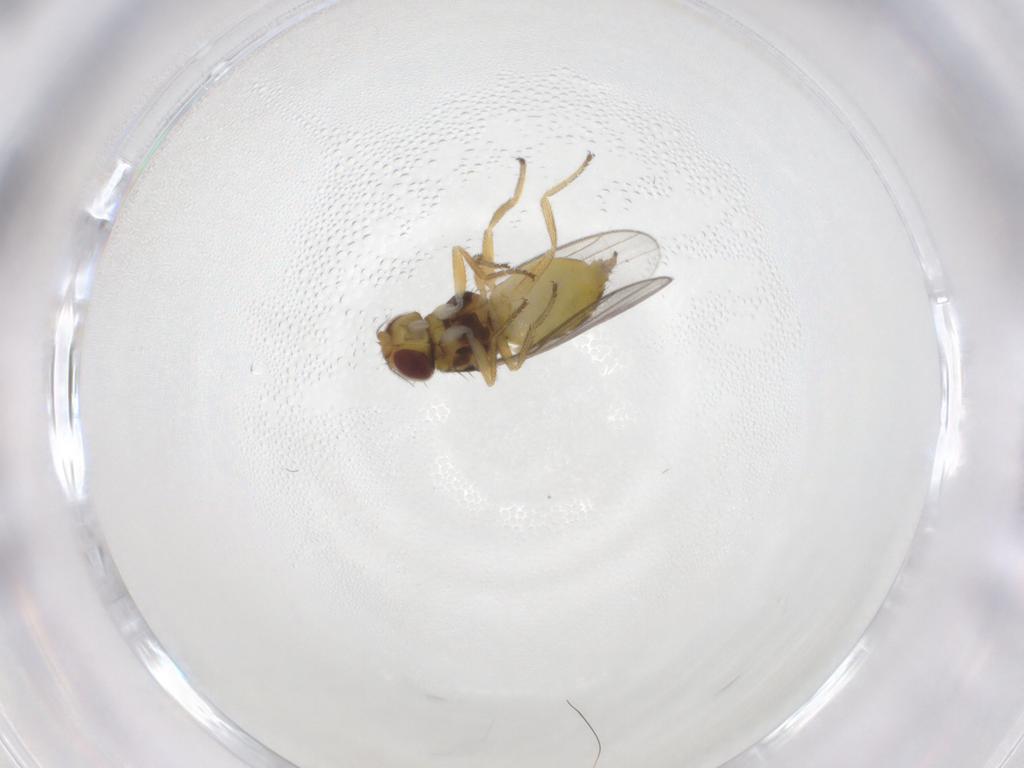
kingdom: Animalia
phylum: Arthropoda
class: Insecta
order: Diptera
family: Chloropidae
